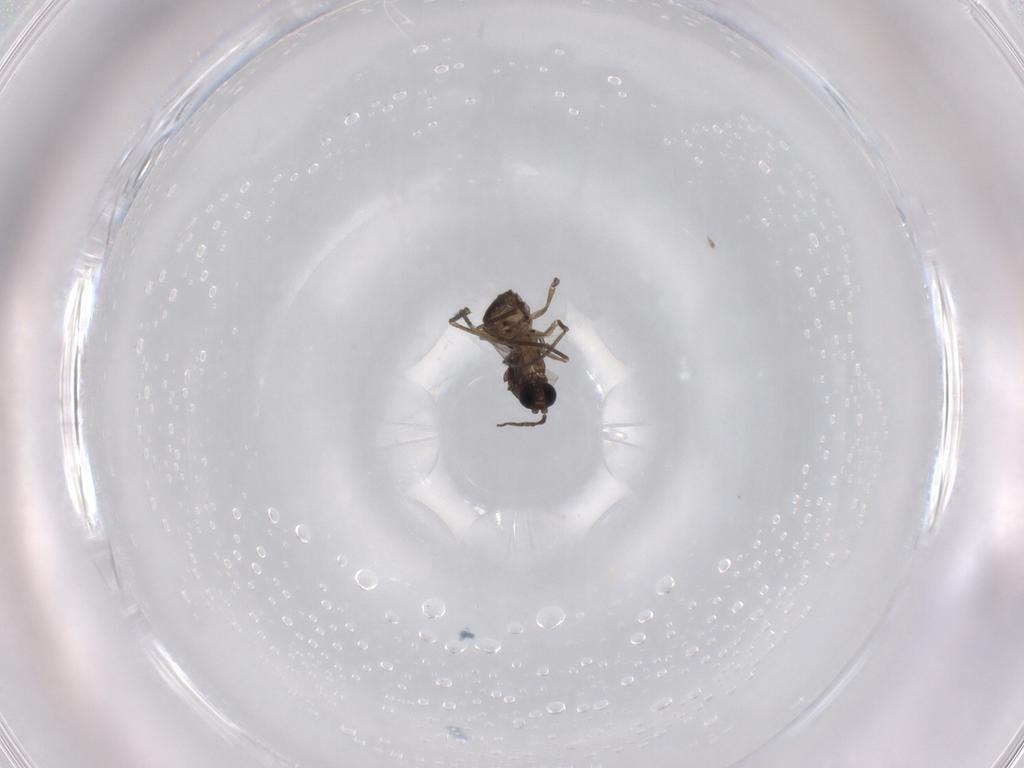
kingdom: Animalia
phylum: Arthropoda
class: Insecta
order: Diptera
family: Sciaridae
